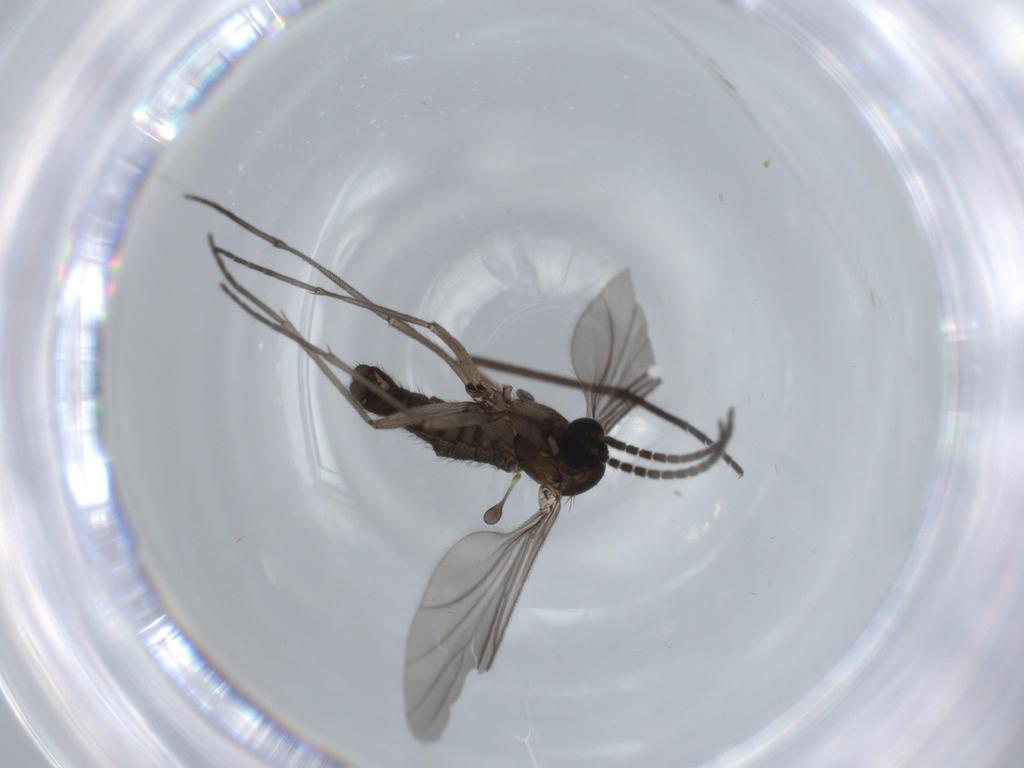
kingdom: Animalia
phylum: Arthropoda
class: Insecta
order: Diptera
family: Sciaridae
